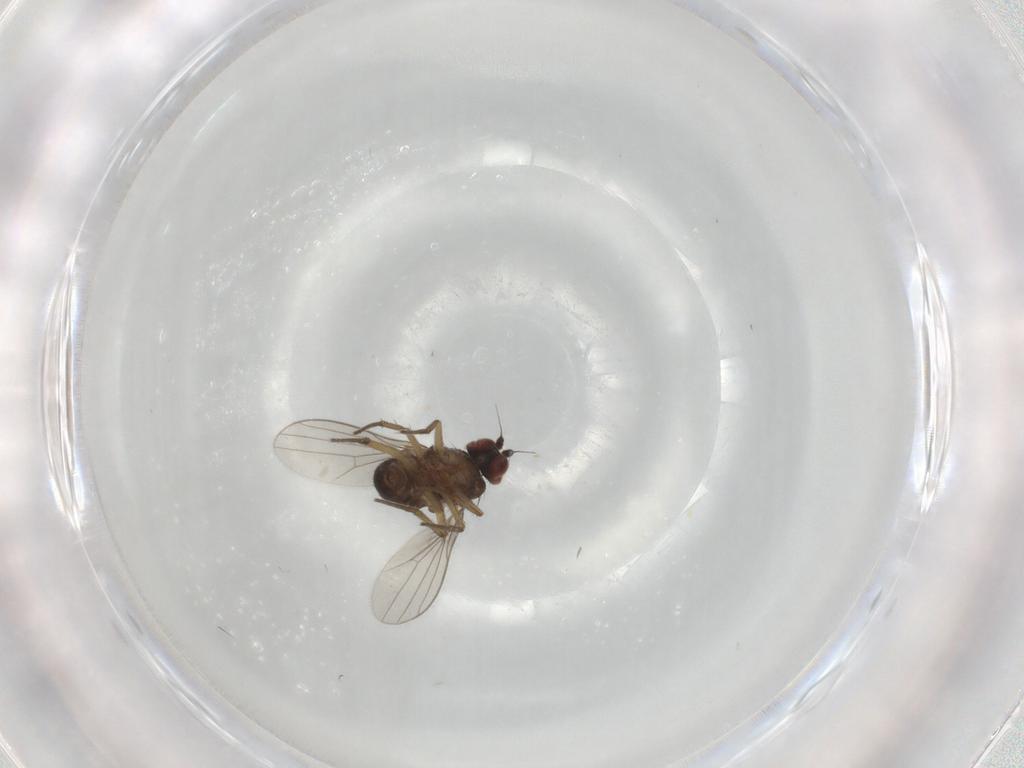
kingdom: Animalia
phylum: Arthropoda
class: Insecta
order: Diptera
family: Dolichopodidae
